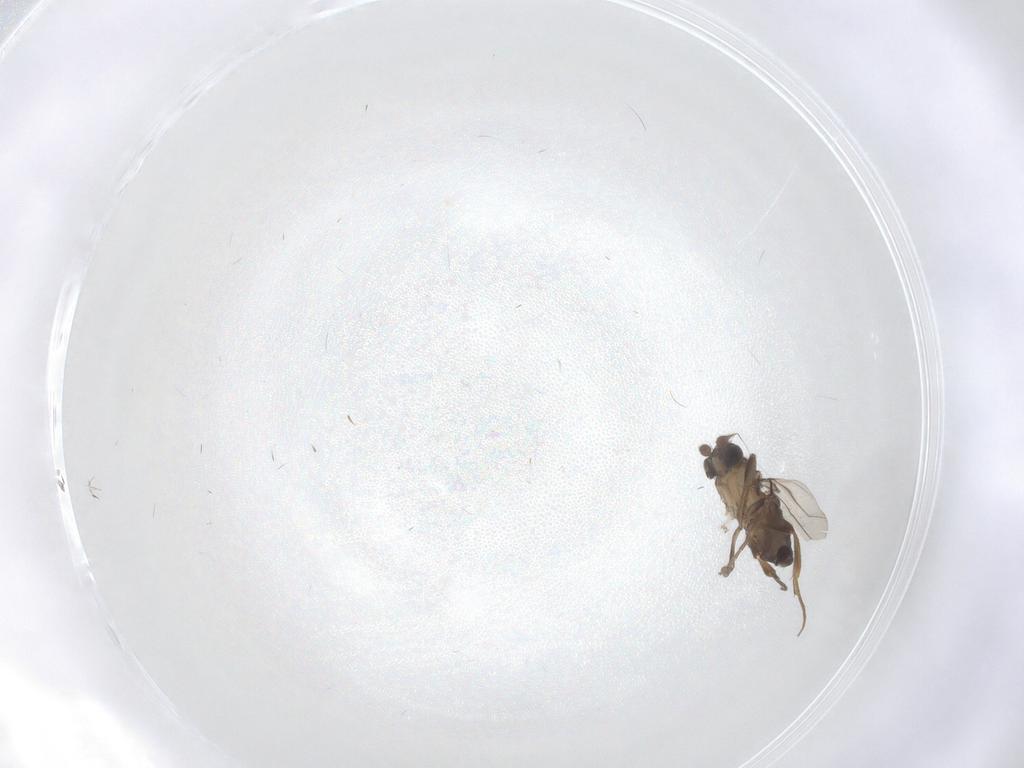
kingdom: Animalia
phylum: Arthropoda
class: Insecta
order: Diptera
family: Phoridae
